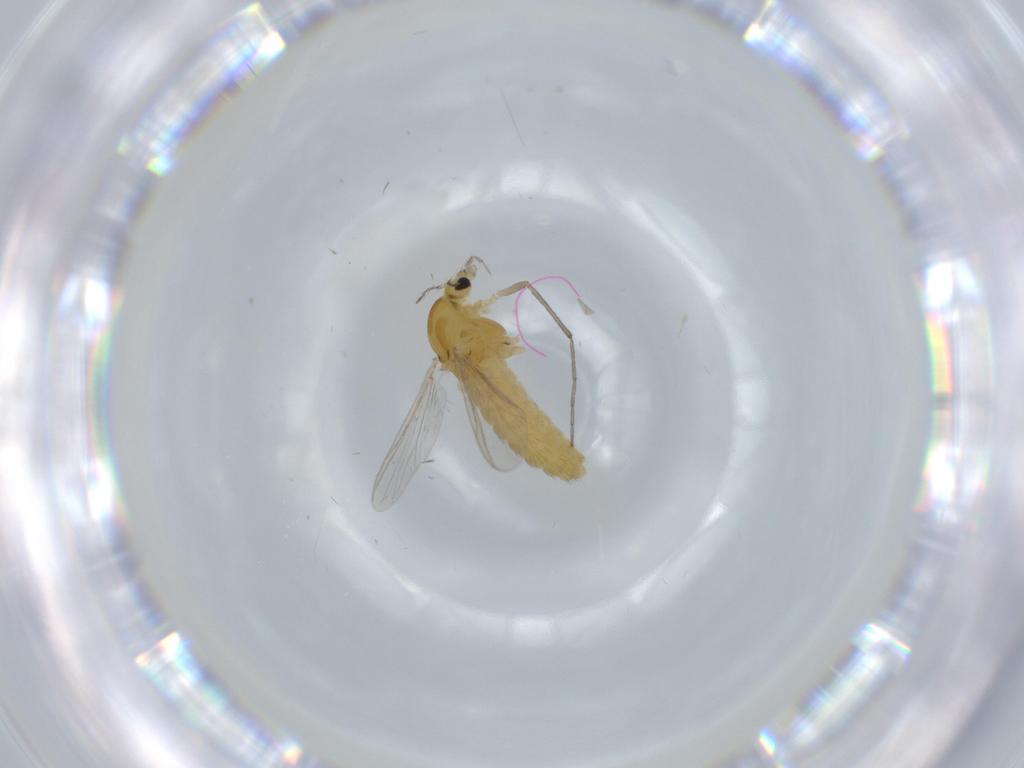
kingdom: Animalia
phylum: Arthropoda
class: Insecta
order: Diptera
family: Chironomidae
